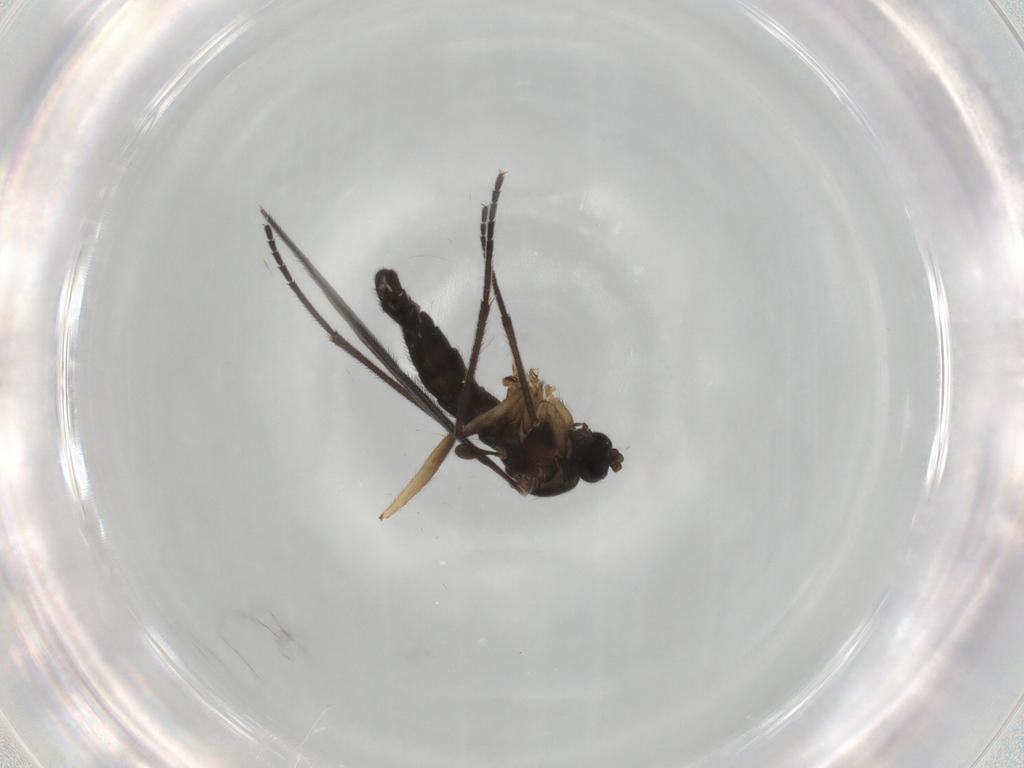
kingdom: Animalia
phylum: Arthropoda
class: Insecta
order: Diptera
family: Sciaridae
